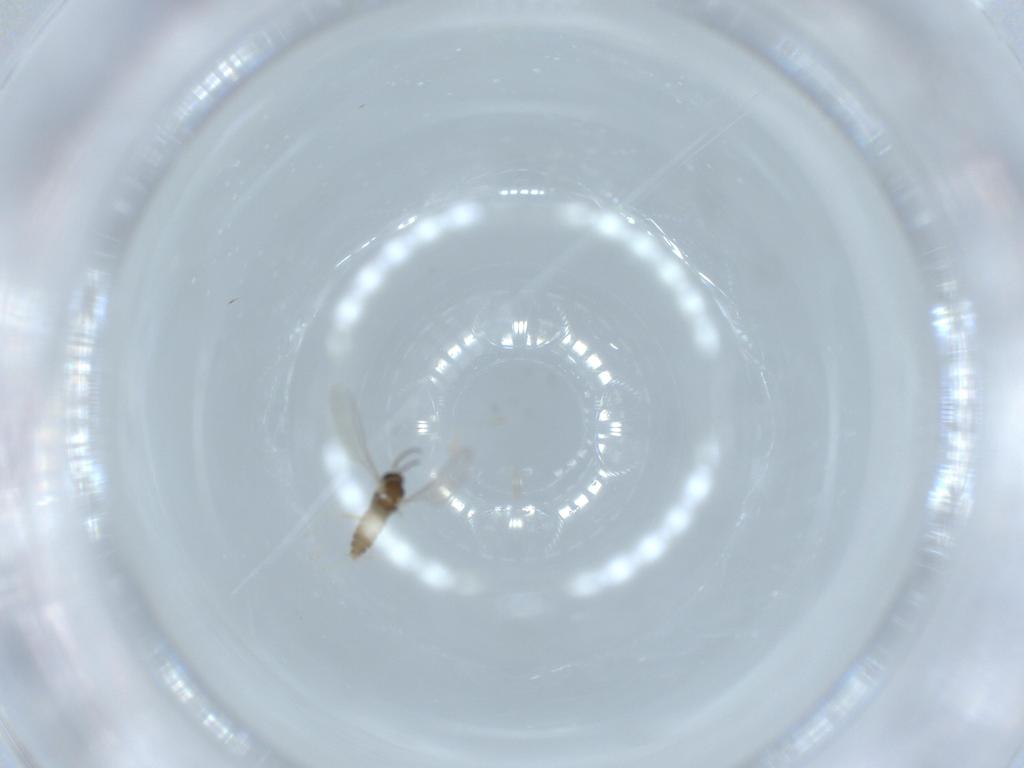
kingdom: Animalia
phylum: Arthropoda
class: Insecta
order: Diptera
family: Cecidomyiidae
